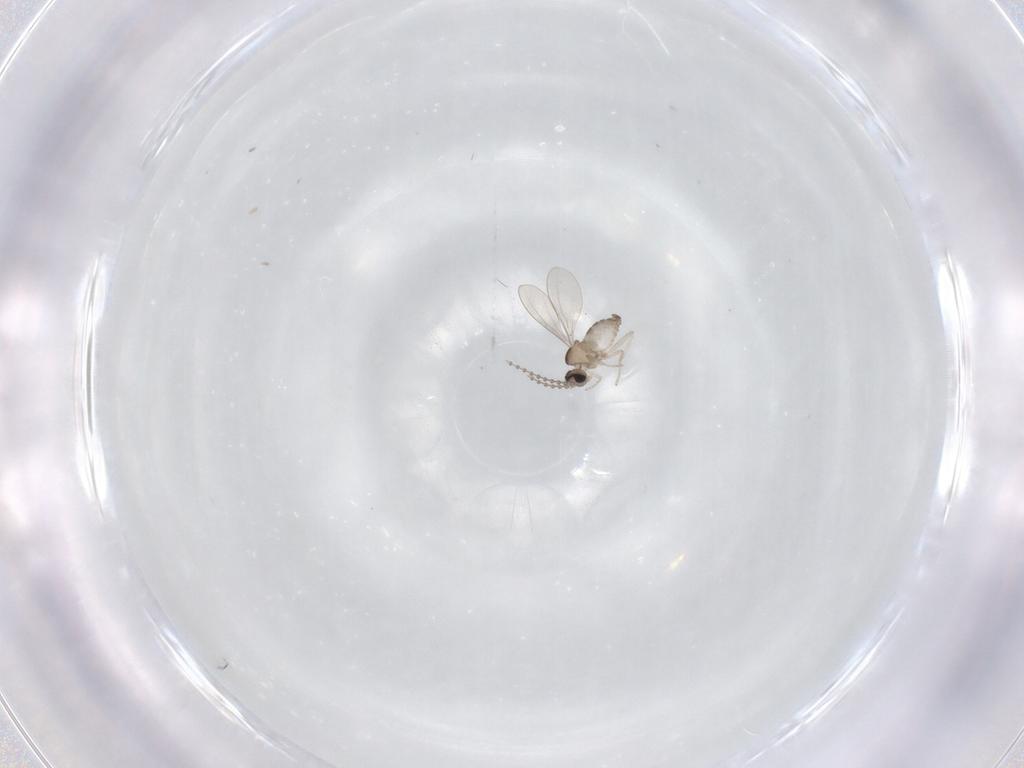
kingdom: Animalia
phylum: Arthropoda
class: Insecta
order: Diptera
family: Cecidomyiidae
